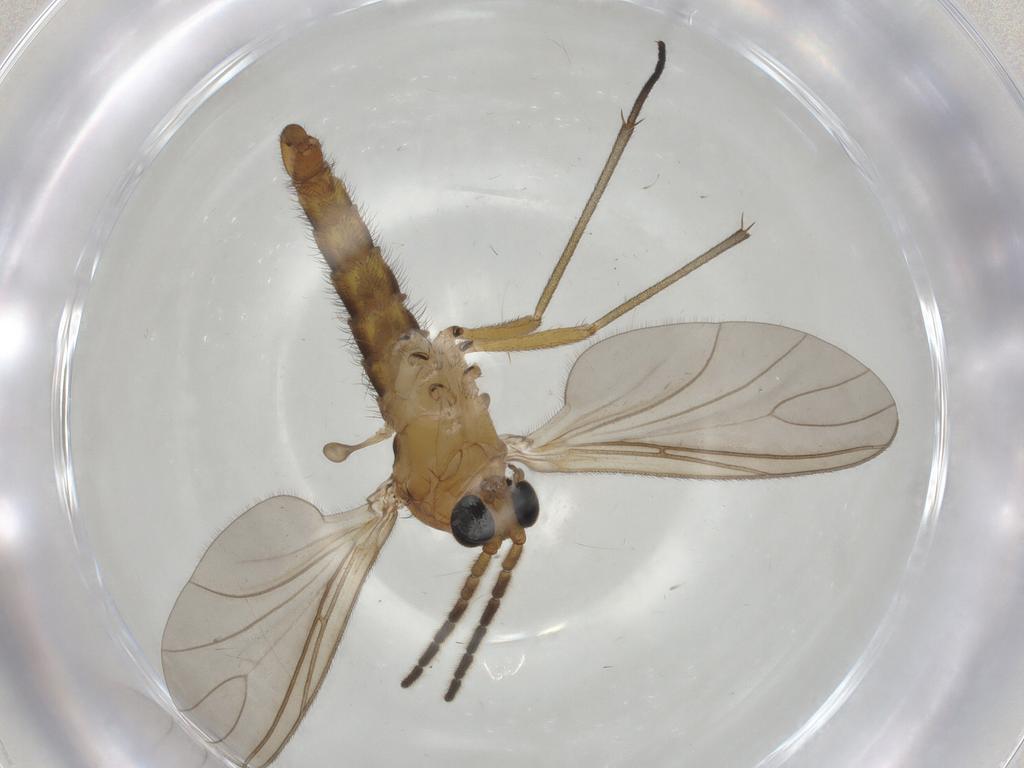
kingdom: Animalia
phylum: Arthropoda
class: Insecta
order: Diptera
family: Sciaridae
